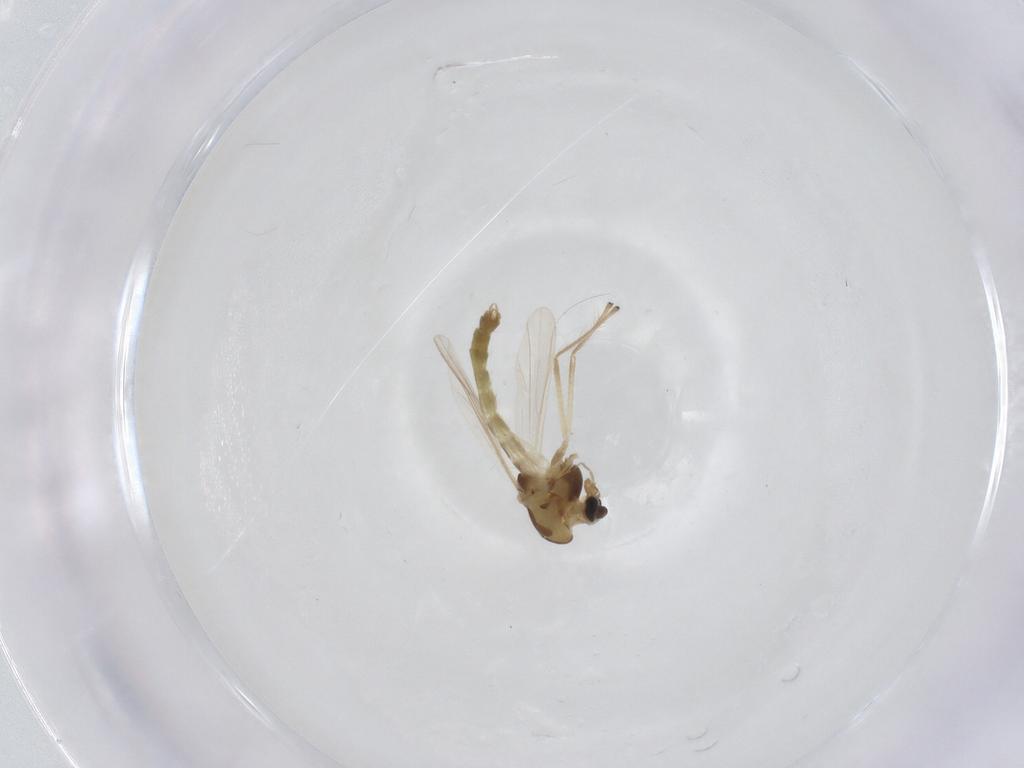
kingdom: Animalia
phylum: Arthropoda
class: Insecta
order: Diptera
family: Chironomidae
